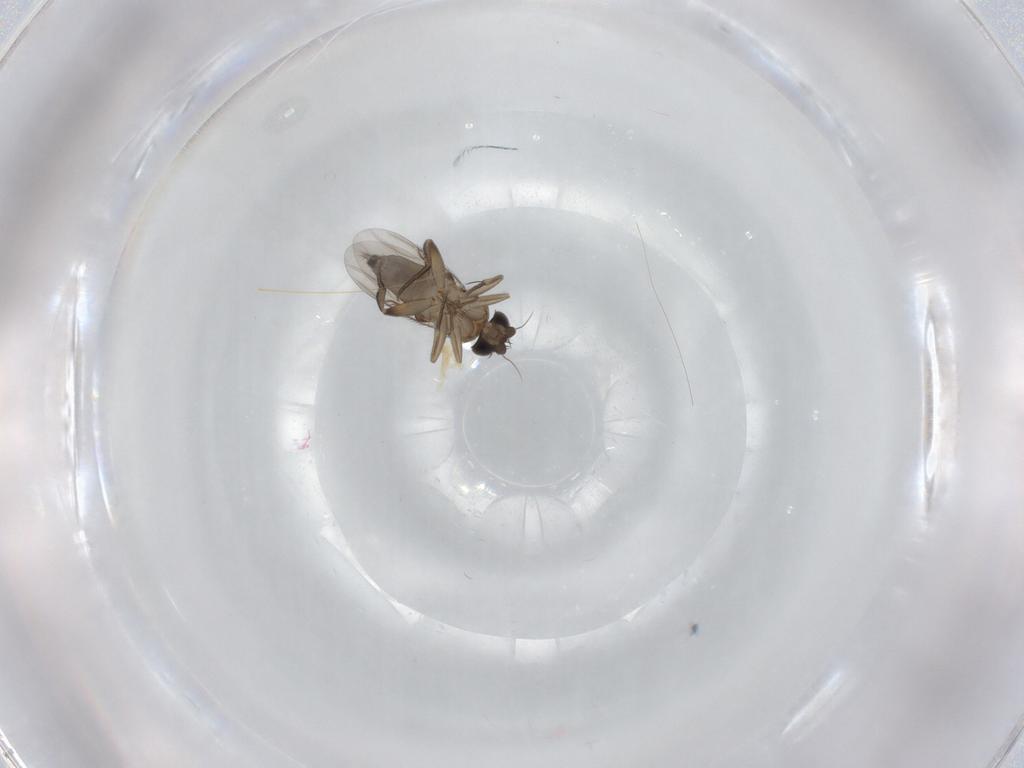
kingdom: Animalia
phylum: Arthropoda
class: Insecta
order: Diptera
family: Phoridae
